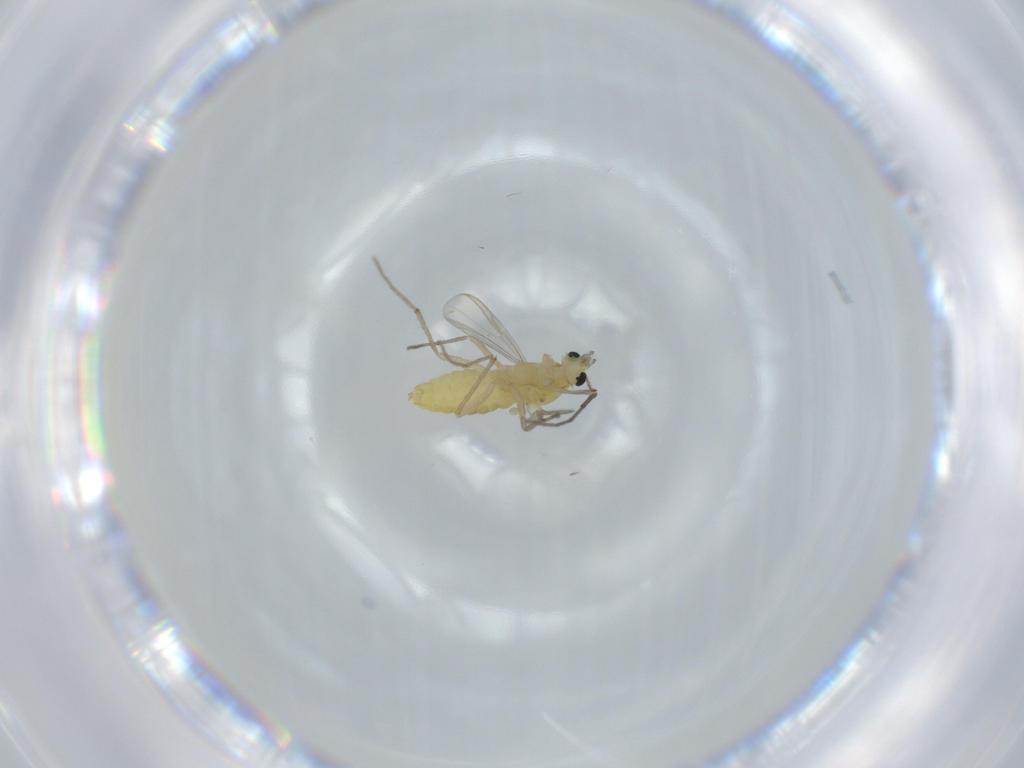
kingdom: Animalia
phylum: Arthropoda
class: Insecta
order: Diptera
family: Chironomidae
